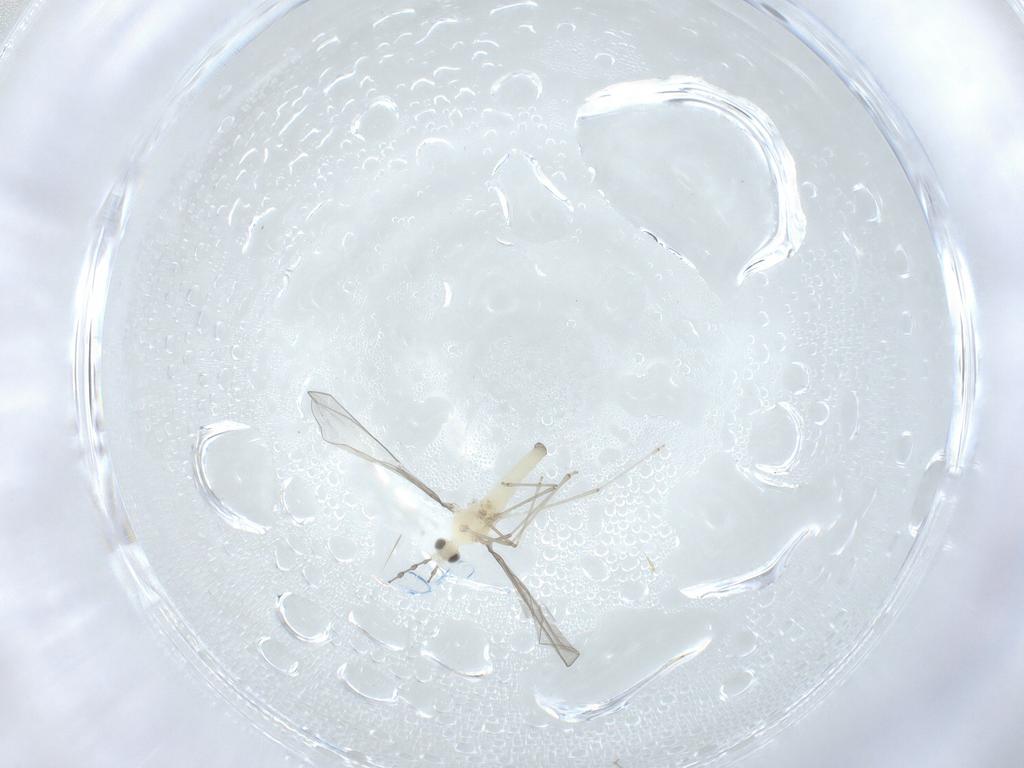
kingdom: Animalia
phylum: Arthropoda
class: Insecta
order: Diptera
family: Cecidomyiidae
